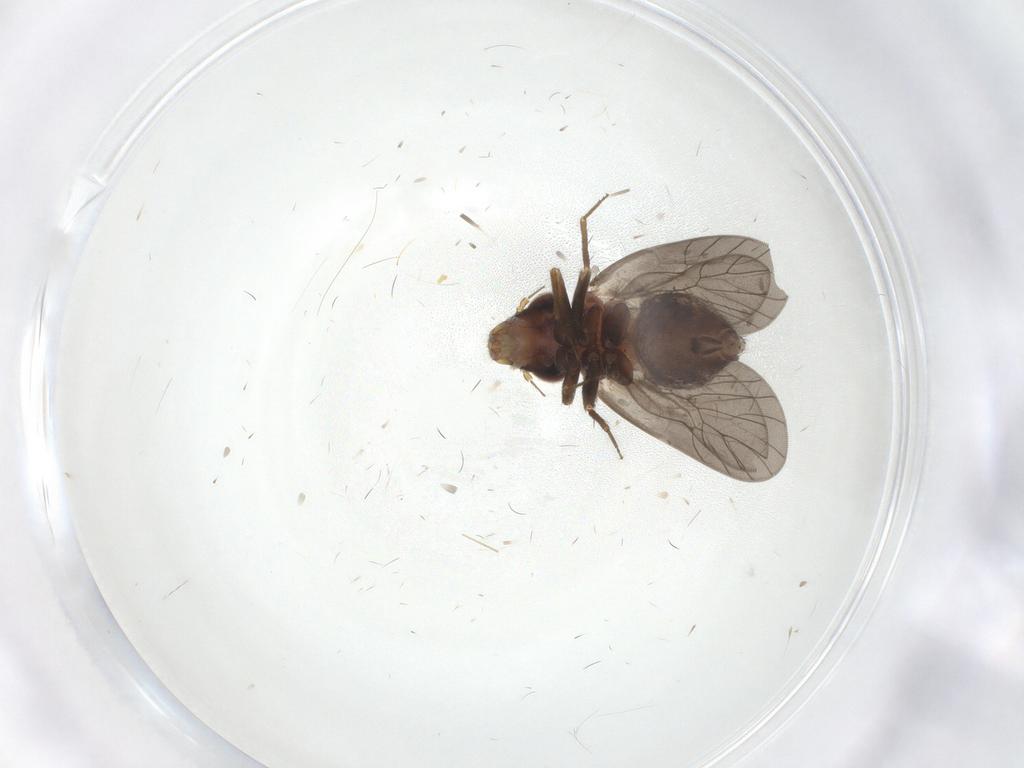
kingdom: Animalia
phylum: Arthropoda
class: Insecta
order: Psocodea
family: Lepidopsocidae
